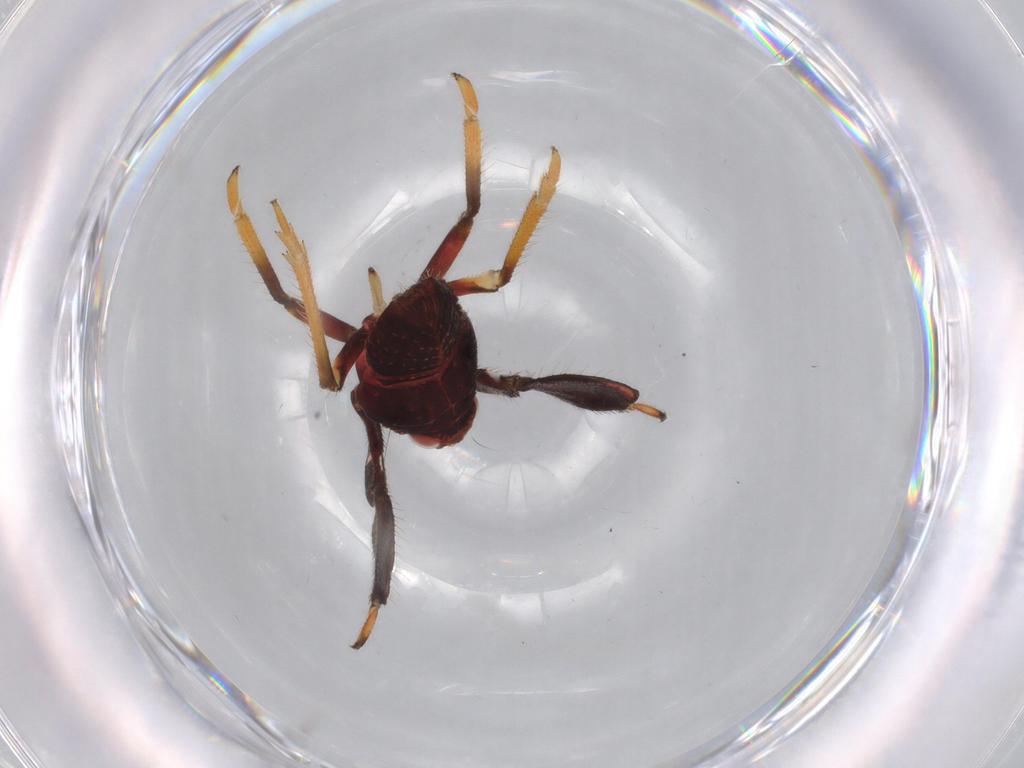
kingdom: Animalia
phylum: Arthropoda
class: Insecta
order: Hemiptera
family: Caliscelidae
